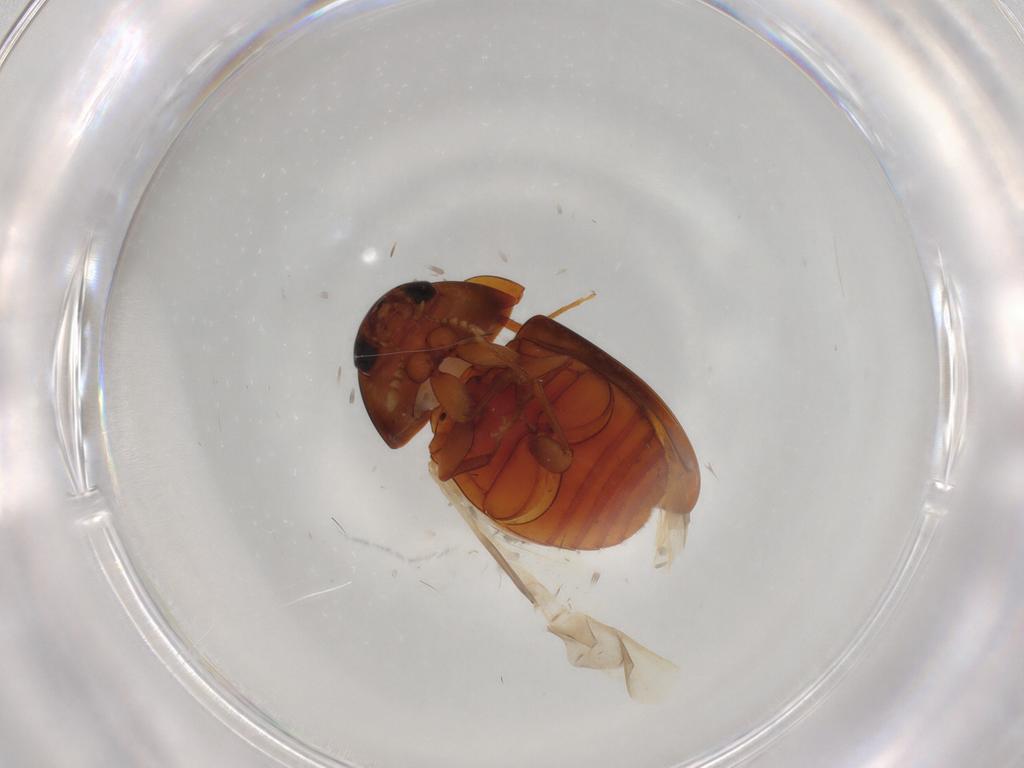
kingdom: Animalia
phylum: Arthropoda
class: Insecta
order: Coleoptera
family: Phalacridae
